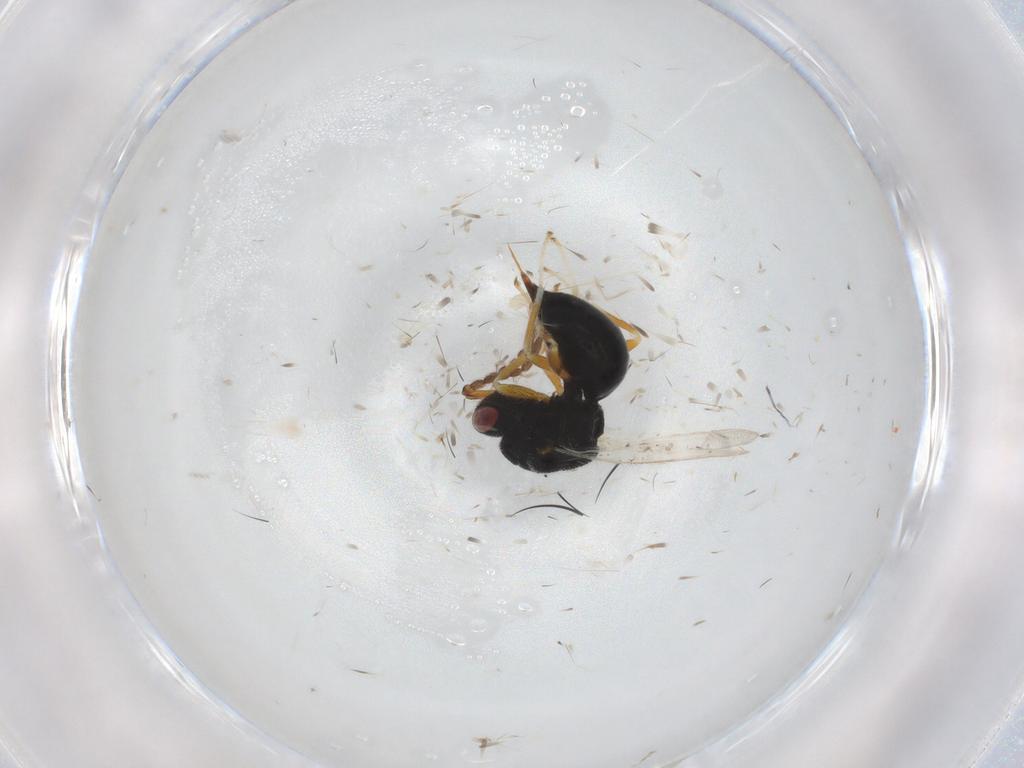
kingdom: Animalia
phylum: Arthropoda
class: Insecta
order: Hymenoptera
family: Eurytomidae
